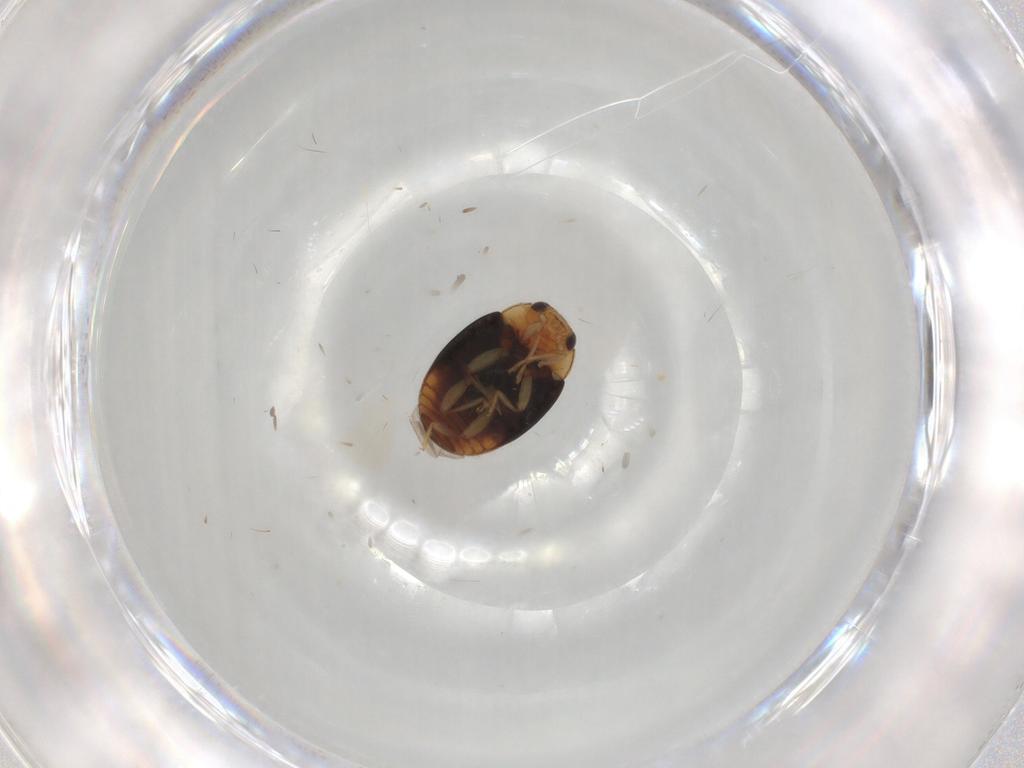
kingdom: Animalia
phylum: Arthropoda
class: Insecta
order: Coleoptera
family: Coccinellidae
